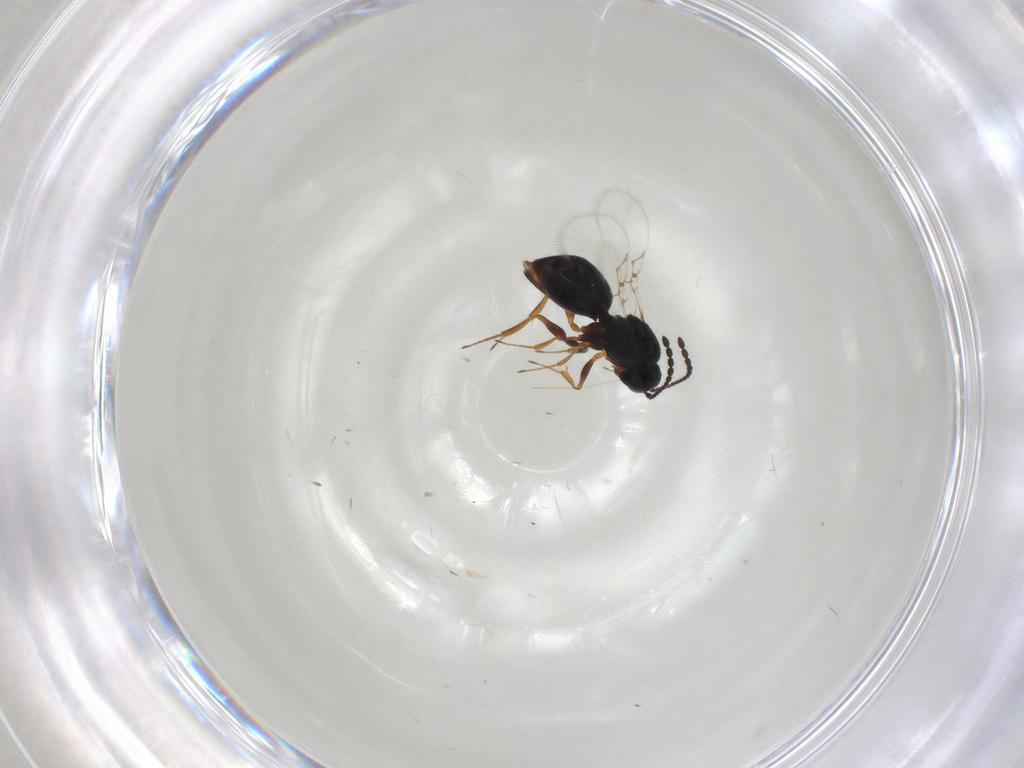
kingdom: Animalia
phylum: Arthropoda
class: Insecta
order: Hymenoptera
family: Figitidae
